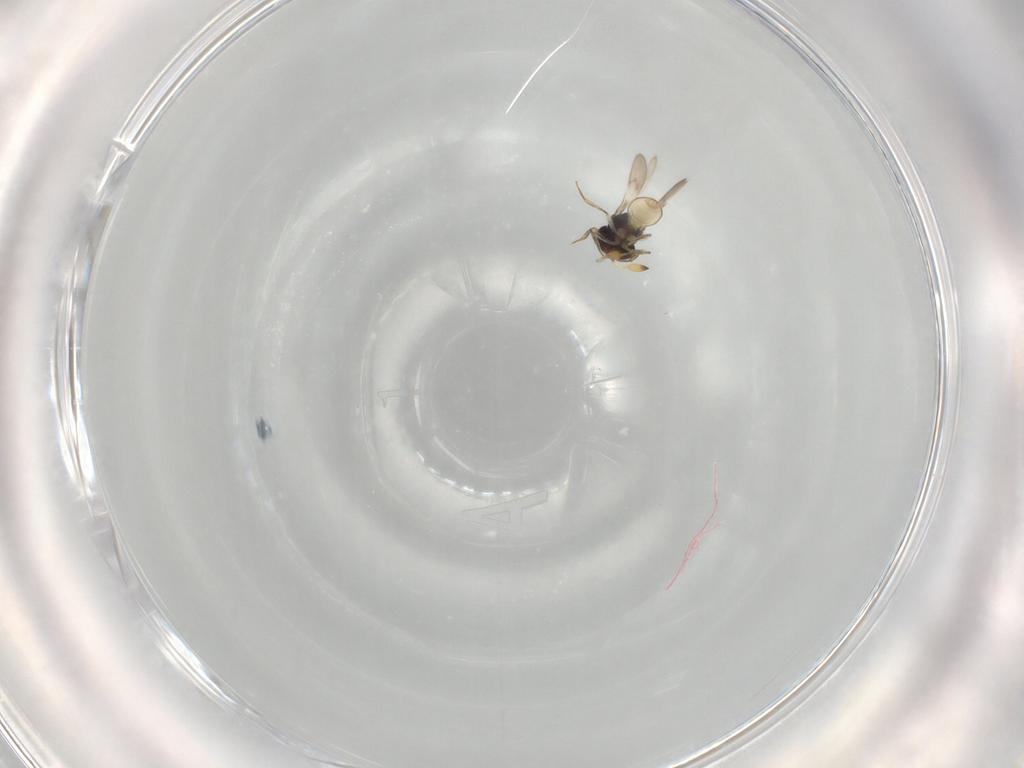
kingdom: Animalia
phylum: Arthropoda
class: Insecta
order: Hymenoptera
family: Scelionidae
